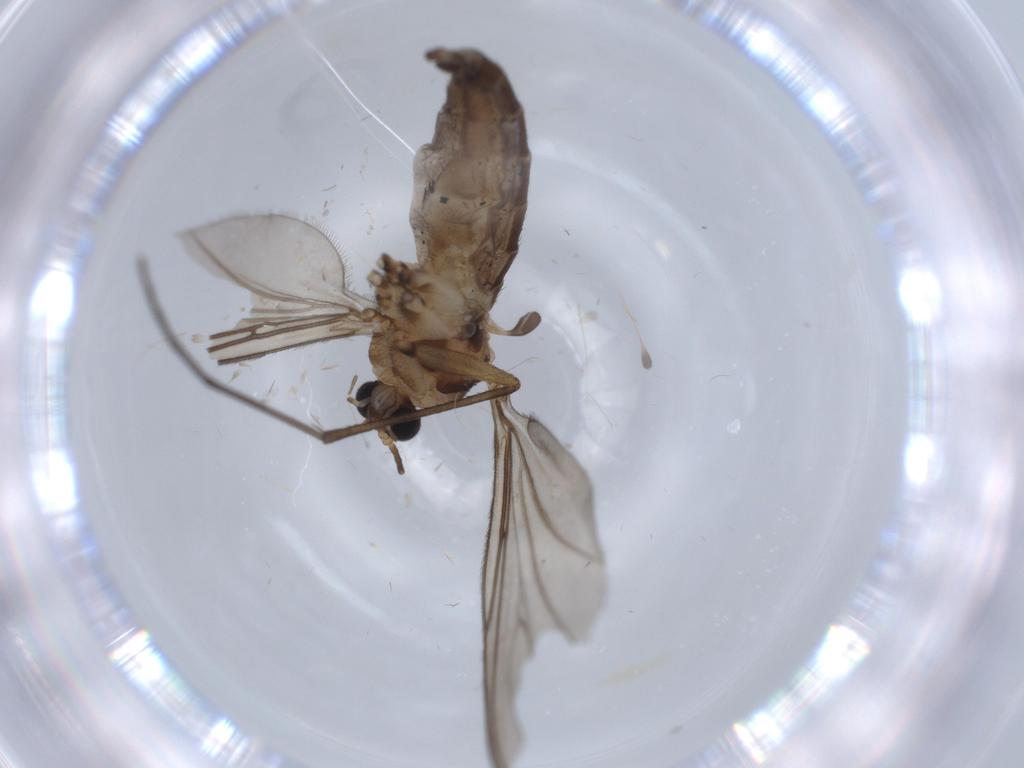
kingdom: Animalia
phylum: Arthropoda
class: Insecta
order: Diptera
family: Sciaridae
